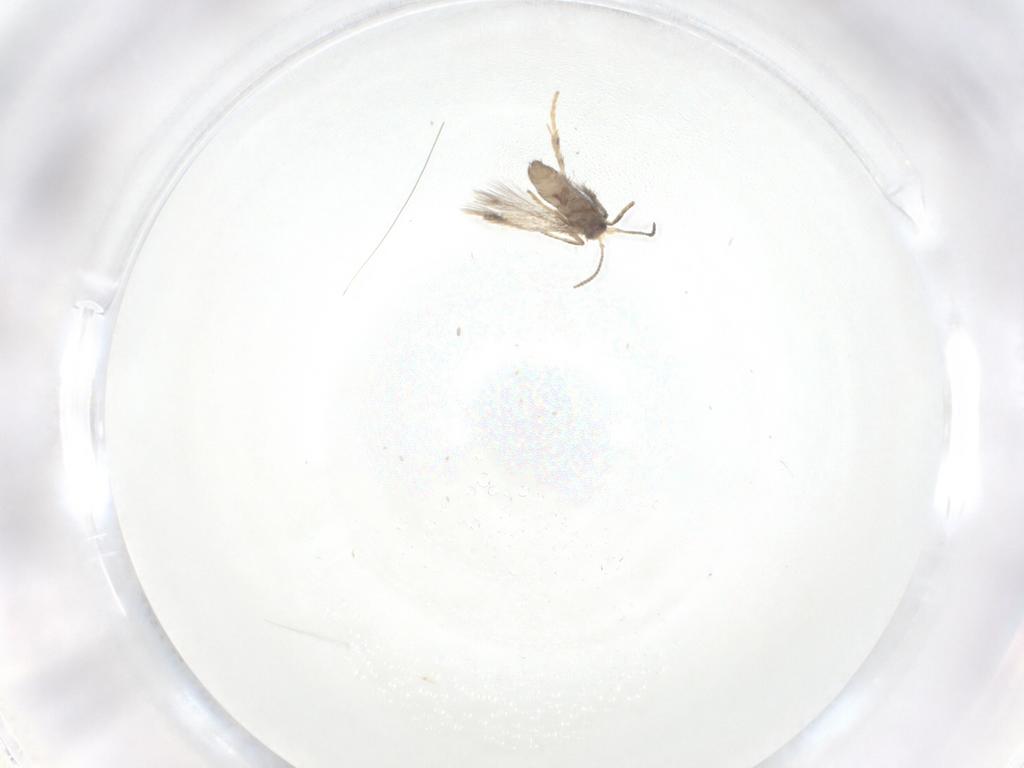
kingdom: Animalia
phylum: Arthropoda
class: Insecta
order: Lepidoptera
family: Nepticulidae
